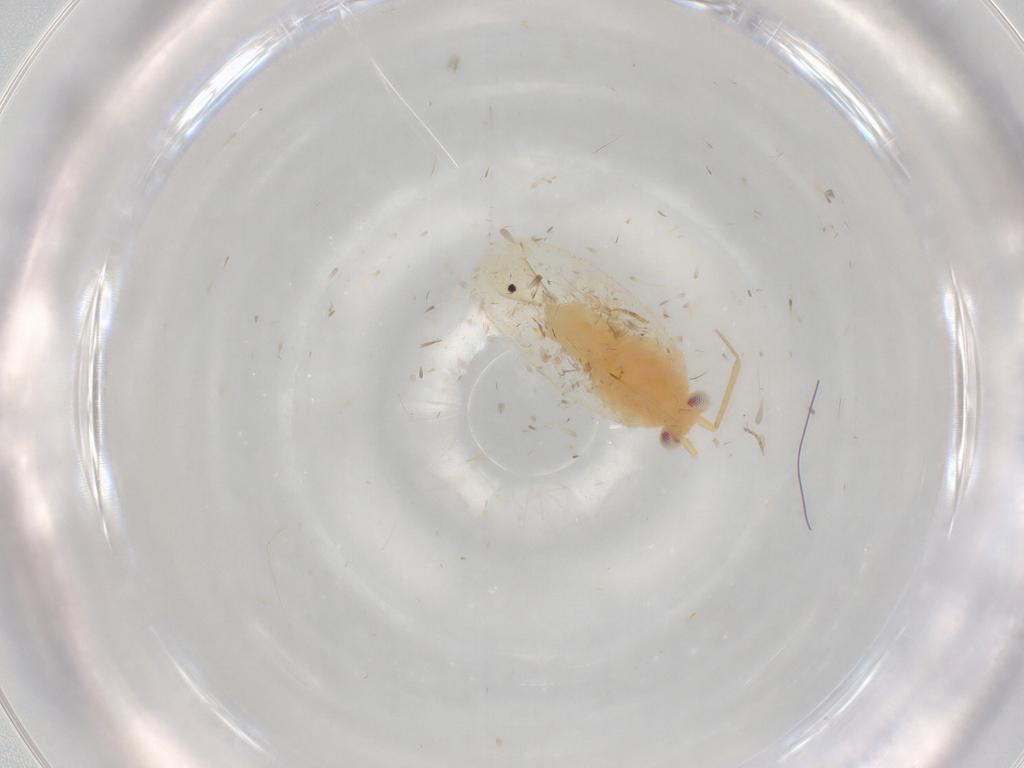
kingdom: Animalia
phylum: Arthropoda
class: Insecta
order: Hemiptera
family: Miridae
